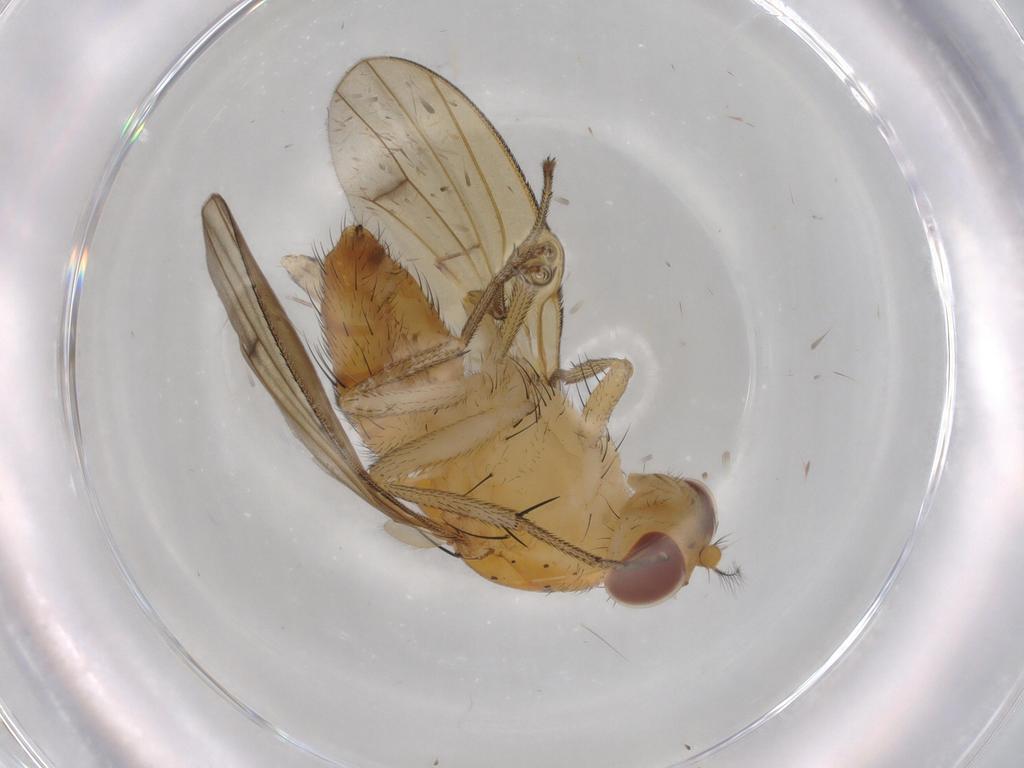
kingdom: Animalia
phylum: Arthropoda
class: Insecta
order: Diptera
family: Lauxaniidae
